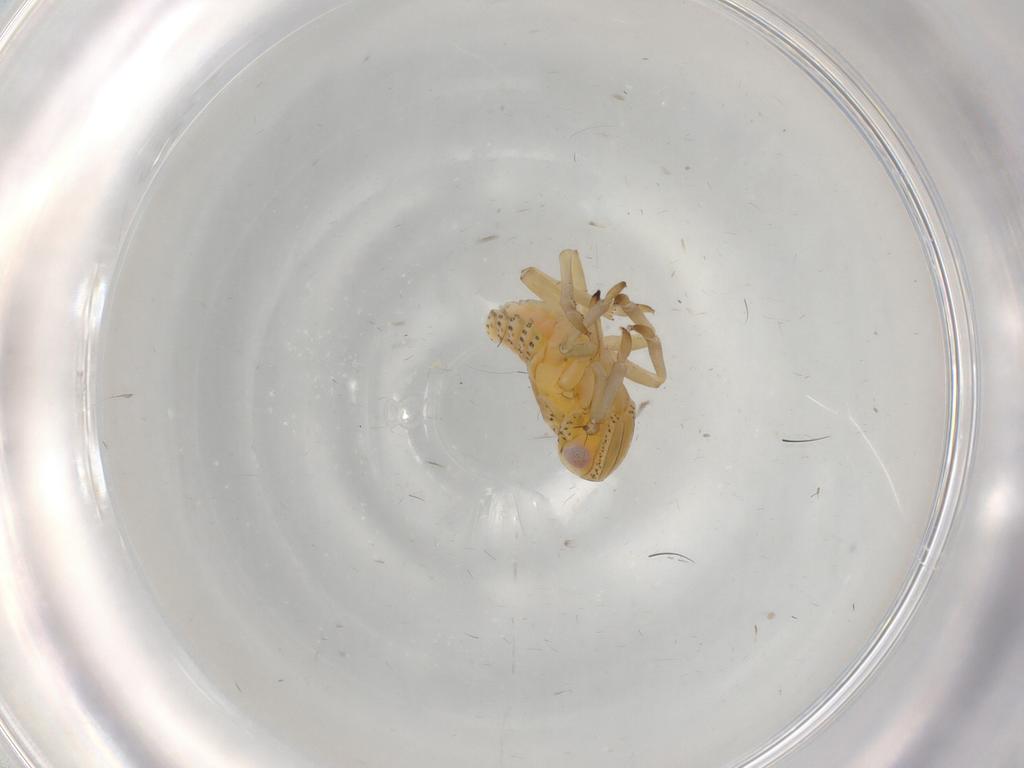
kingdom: Animalia
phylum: Arthropoda
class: Insecta
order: Hemiptera
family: Tropiduchidae
